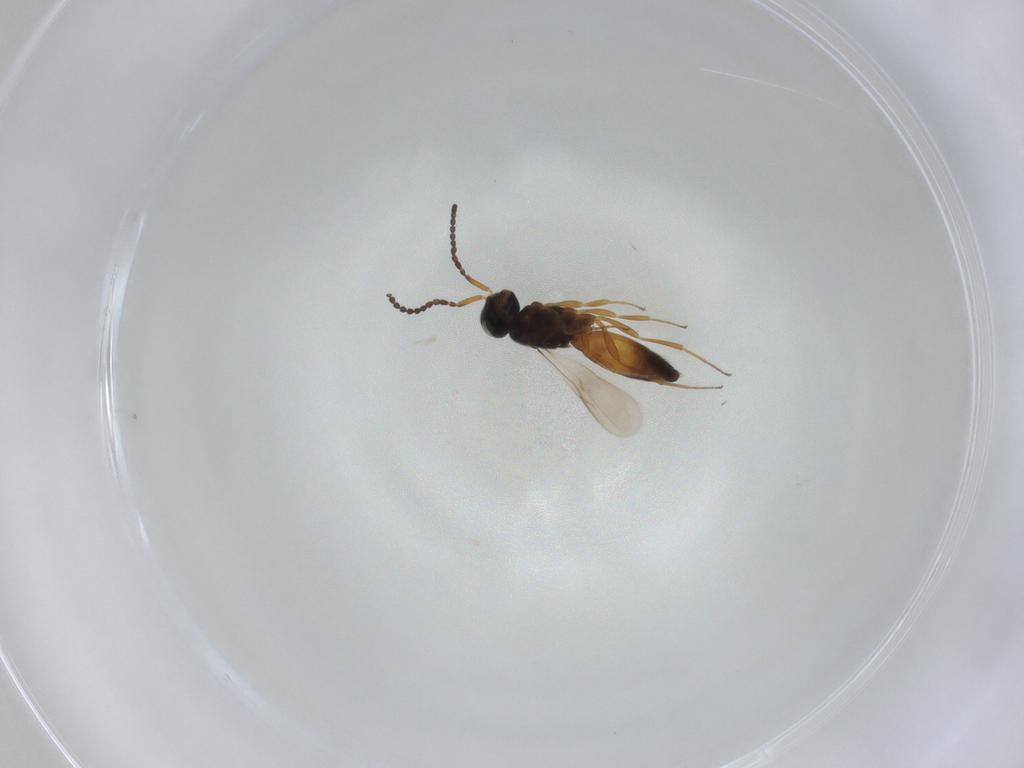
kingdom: Animalia
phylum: Arthropoda
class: Insecta
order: Hymenoptera
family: Scelionidae
